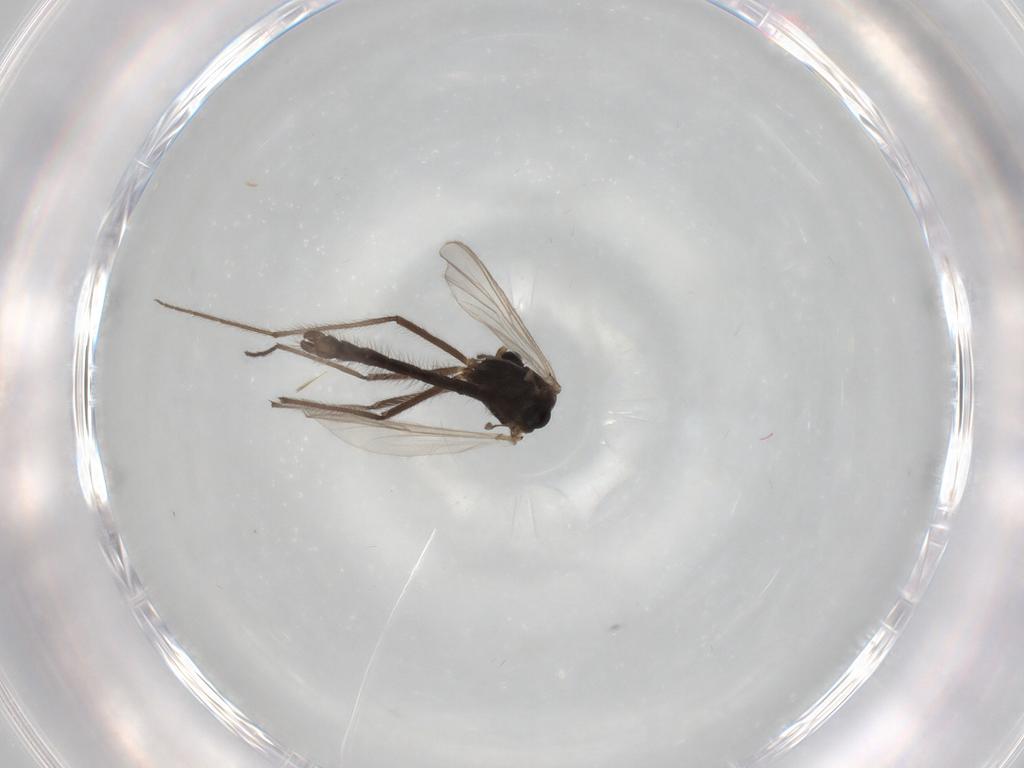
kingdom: Animalia
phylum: Arthropoda
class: Insecta
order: Diptera
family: Chironomidae
